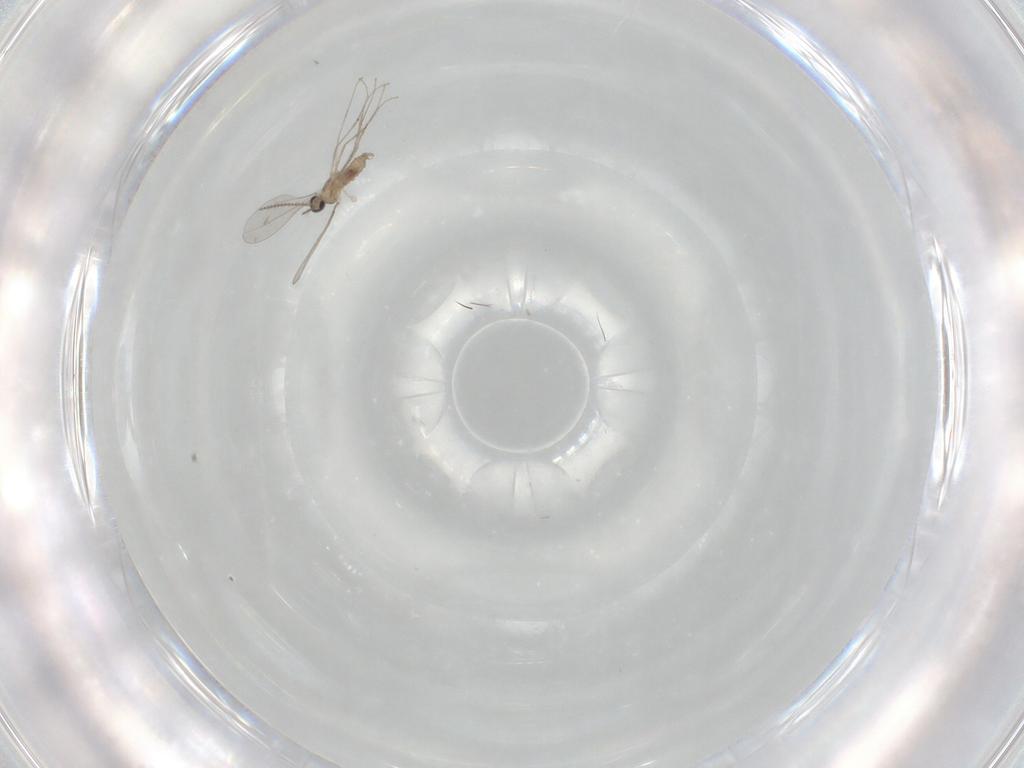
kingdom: Animalia
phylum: Arthropoda
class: Insecta
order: Diptera
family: Cecidomyiidae
